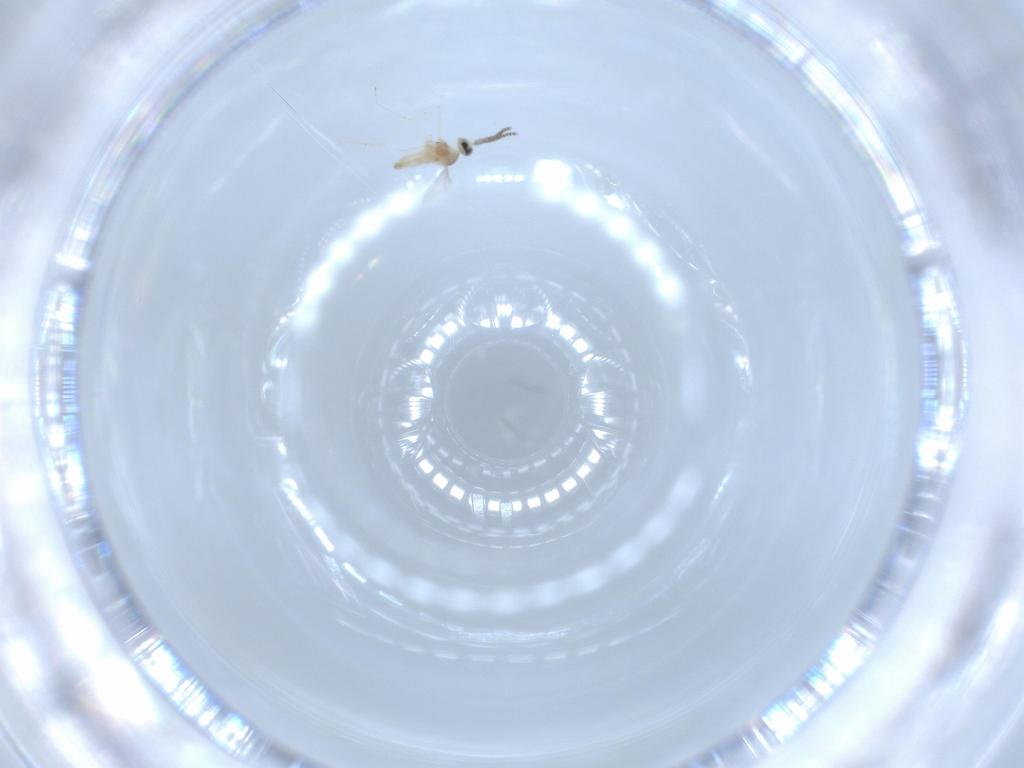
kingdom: Animalia
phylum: Arthropoda
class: Insecta
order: Diptera
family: Cecidomyiidae
